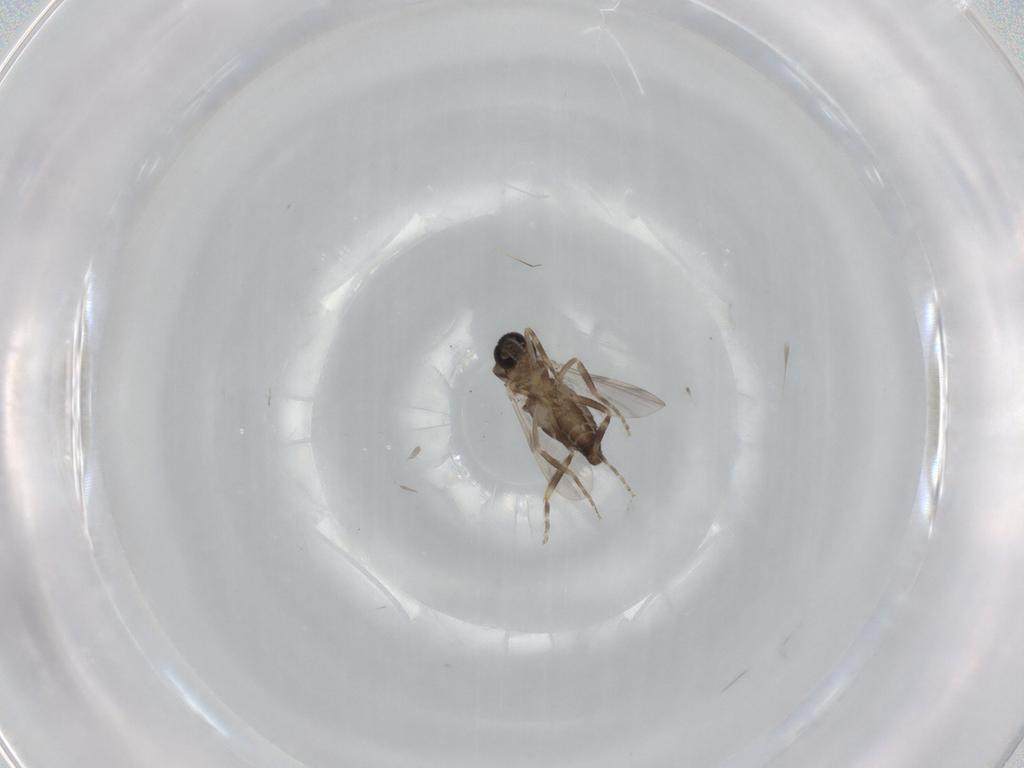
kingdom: Animalia
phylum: Arthropoda
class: Insecta
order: Diptera
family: Ceratopogonidae
